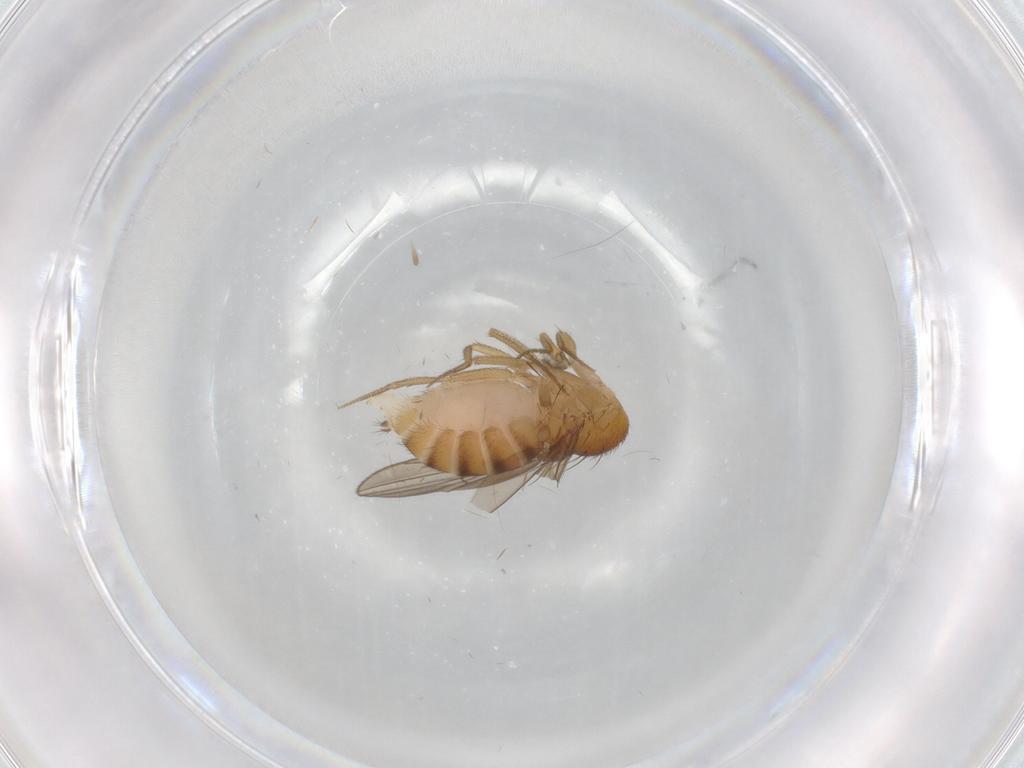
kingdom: Animalia
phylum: Arthropoda
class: Insecta
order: Diptera
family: Drosophilidae
